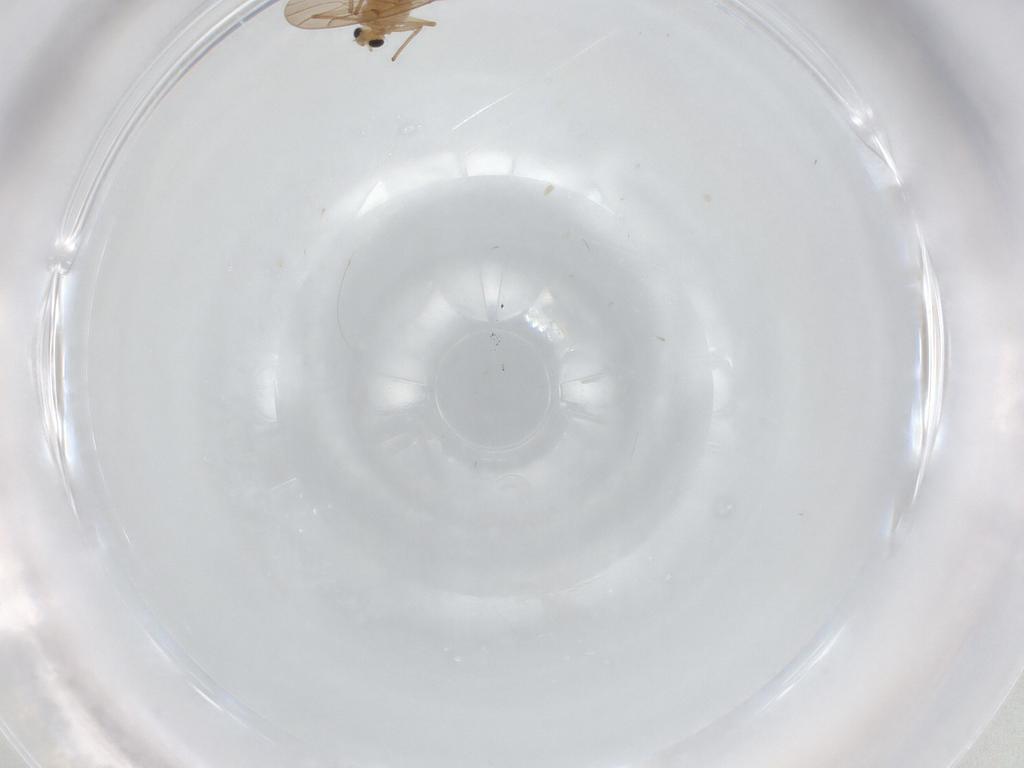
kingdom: Animalia
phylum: Arthropoda
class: Insecta
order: Diptera
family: Chironomidae
